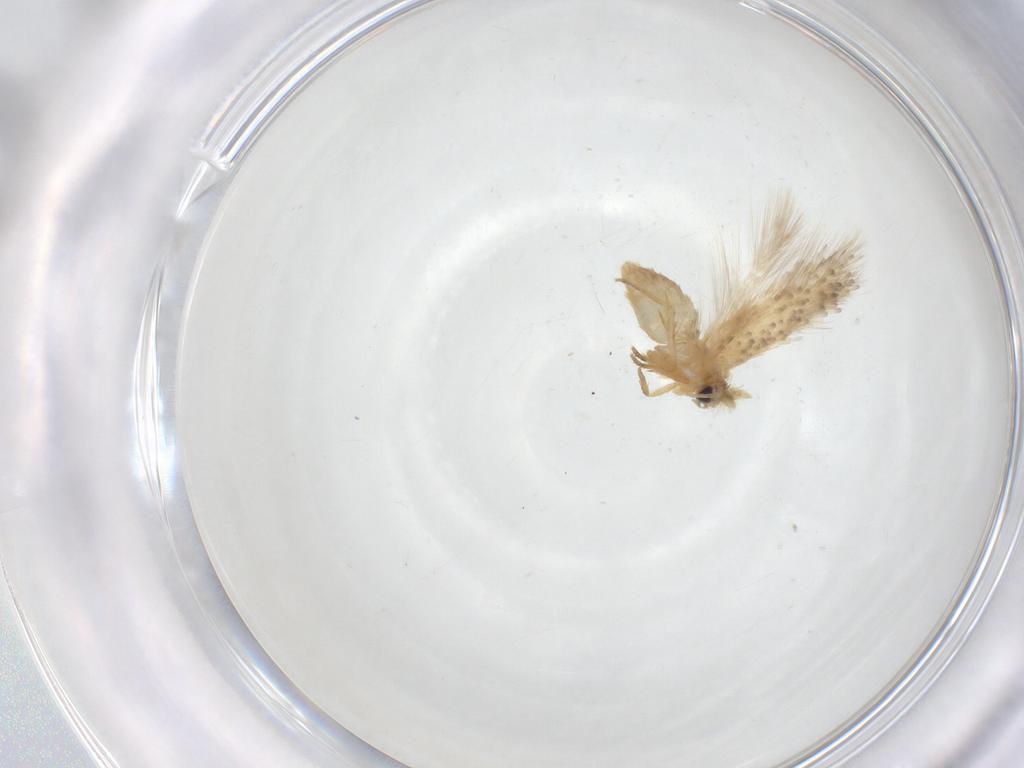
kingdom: Animalia
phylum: Arthropoda
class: Insecta
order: Lepidoptera
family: Nepticulidae
